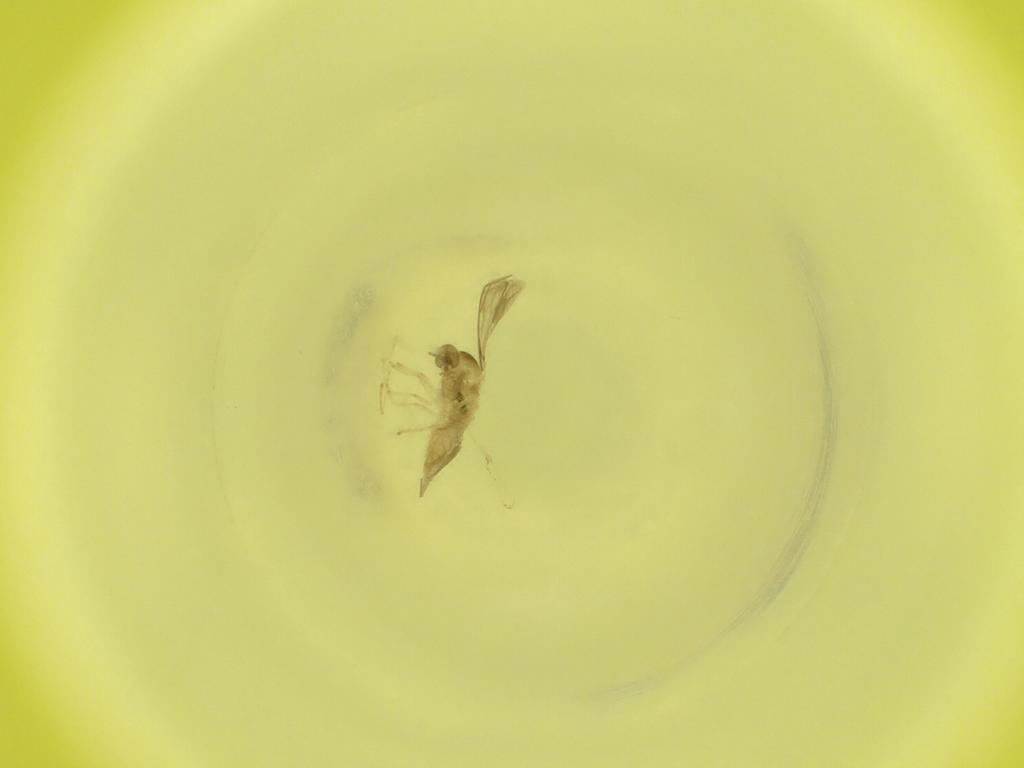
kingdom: Animalia
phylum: Arthropoda
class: Insecta
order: Diptera
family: Cecidomyiidae
